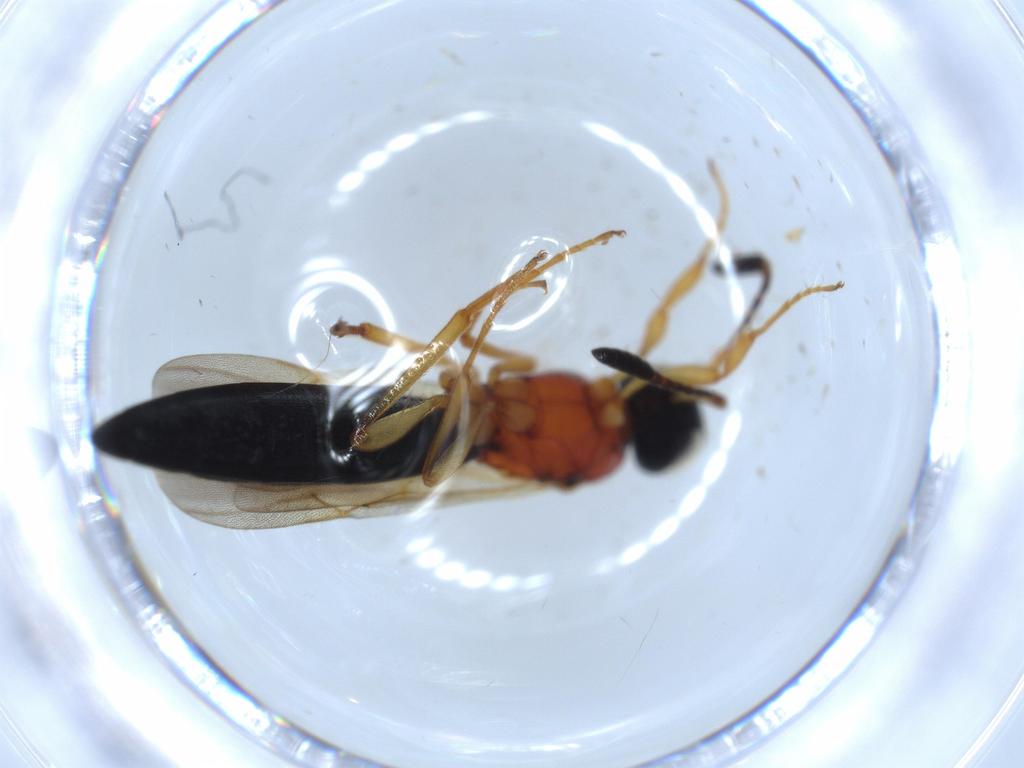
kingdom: Animalia
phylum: Arthropoda
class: Insecta
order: Hymenoptera
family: Scelionidae
